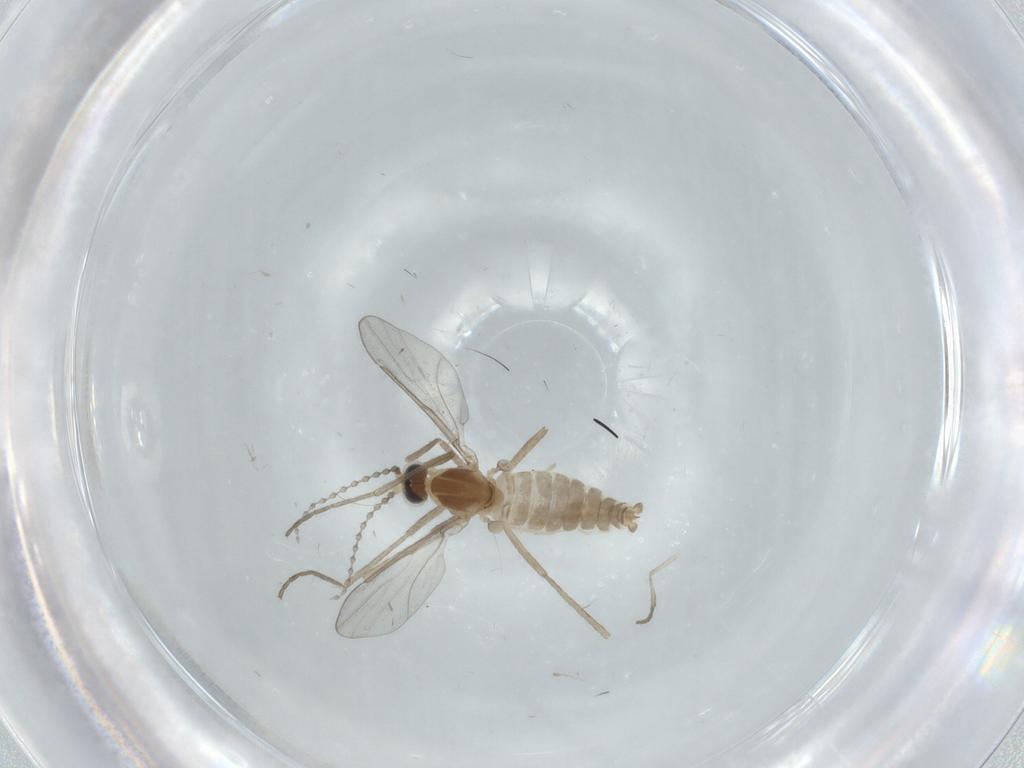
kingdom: Animalia
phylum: Arthropoda
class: Insecta
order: Diptera
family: Cecidomyiidae
